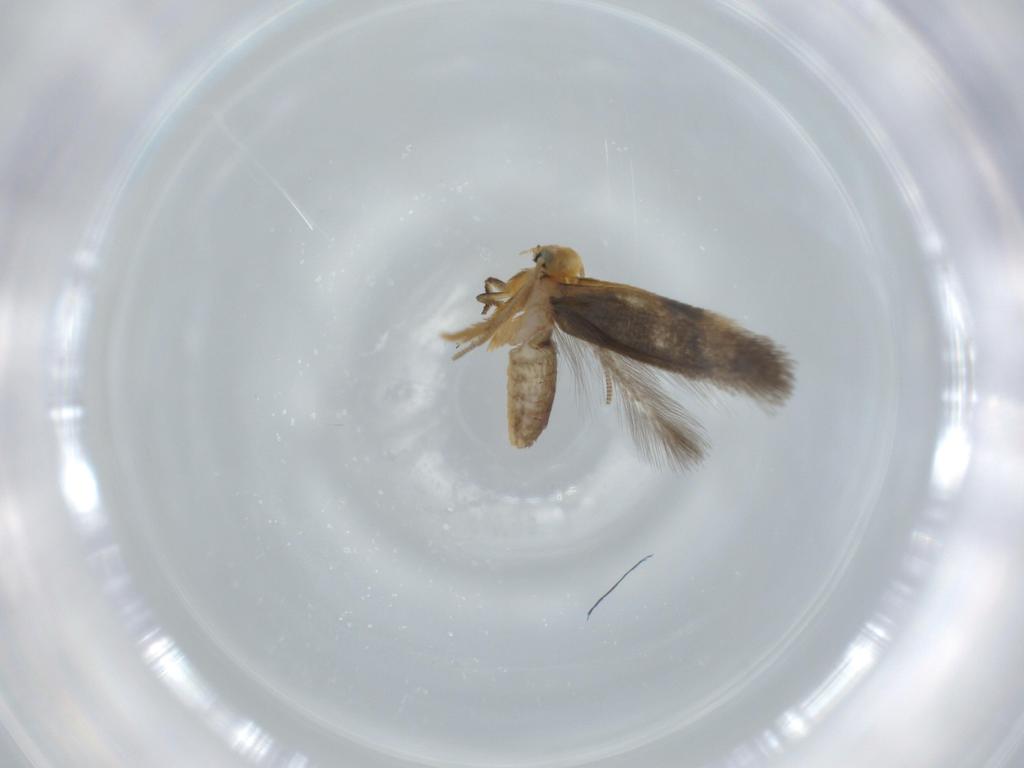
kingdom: Animalia
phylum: Arthropoda
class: Insecta
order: Lepidoptera
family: Nepticulidae
